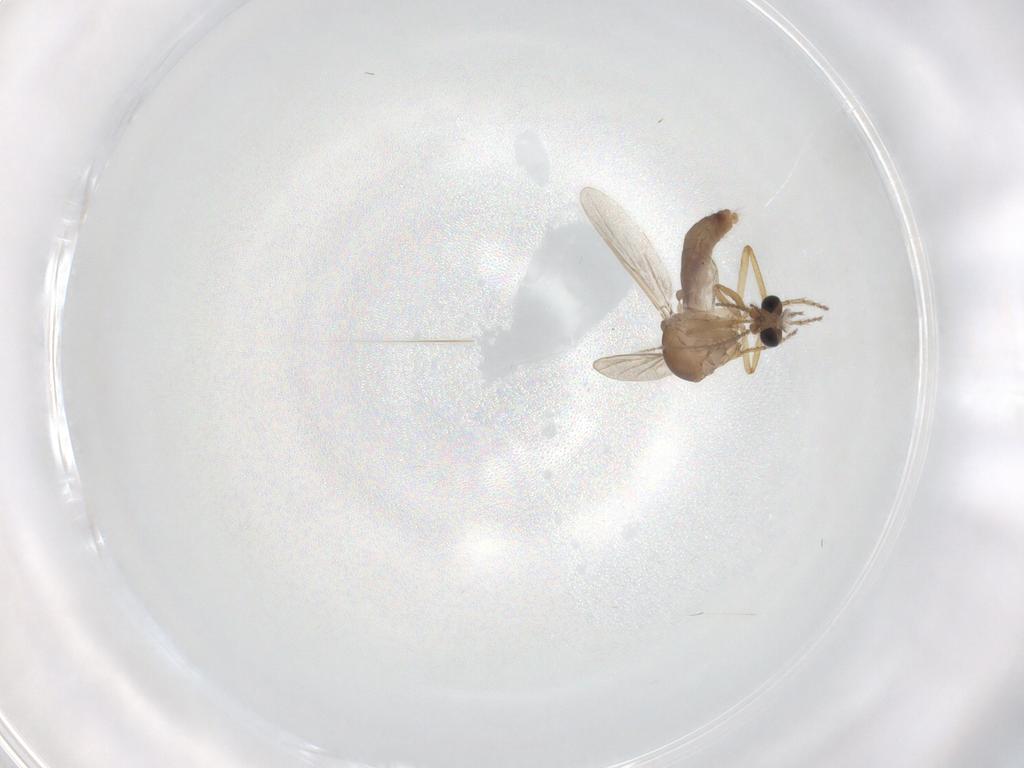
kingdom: Animalia
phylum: Arthropoda
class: Insecta
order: Diptera
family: Ceratopogonidae
